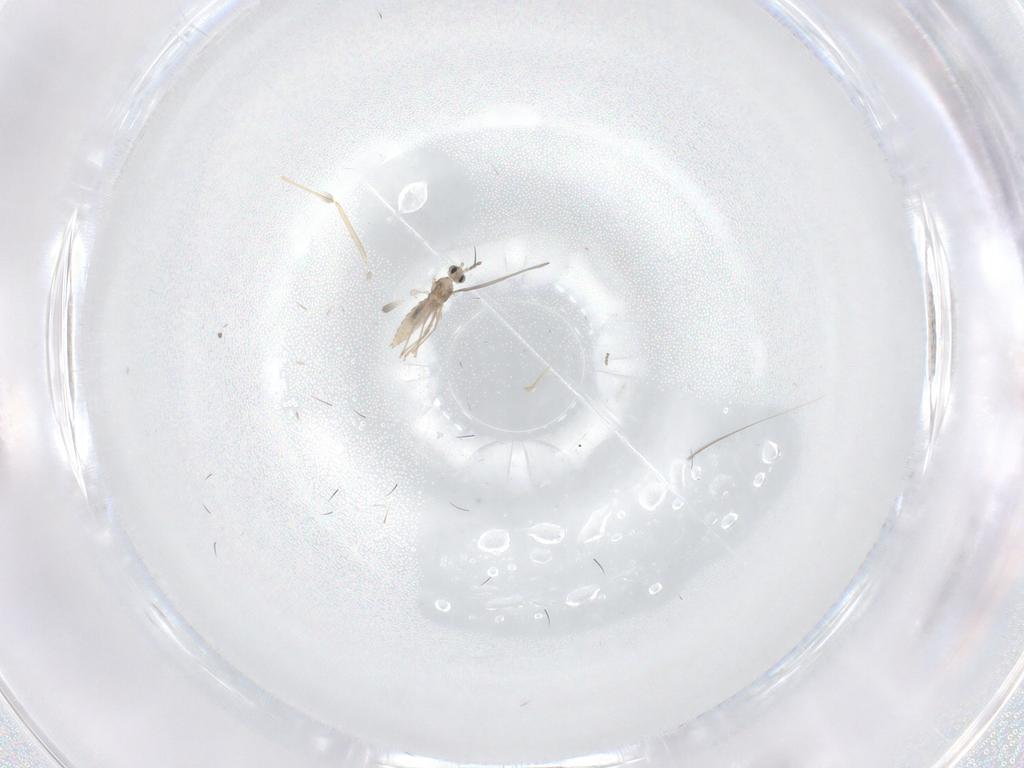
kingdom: Animalia
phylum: Arthropoda
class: Insecta
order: Diptera
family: Psychodidae
